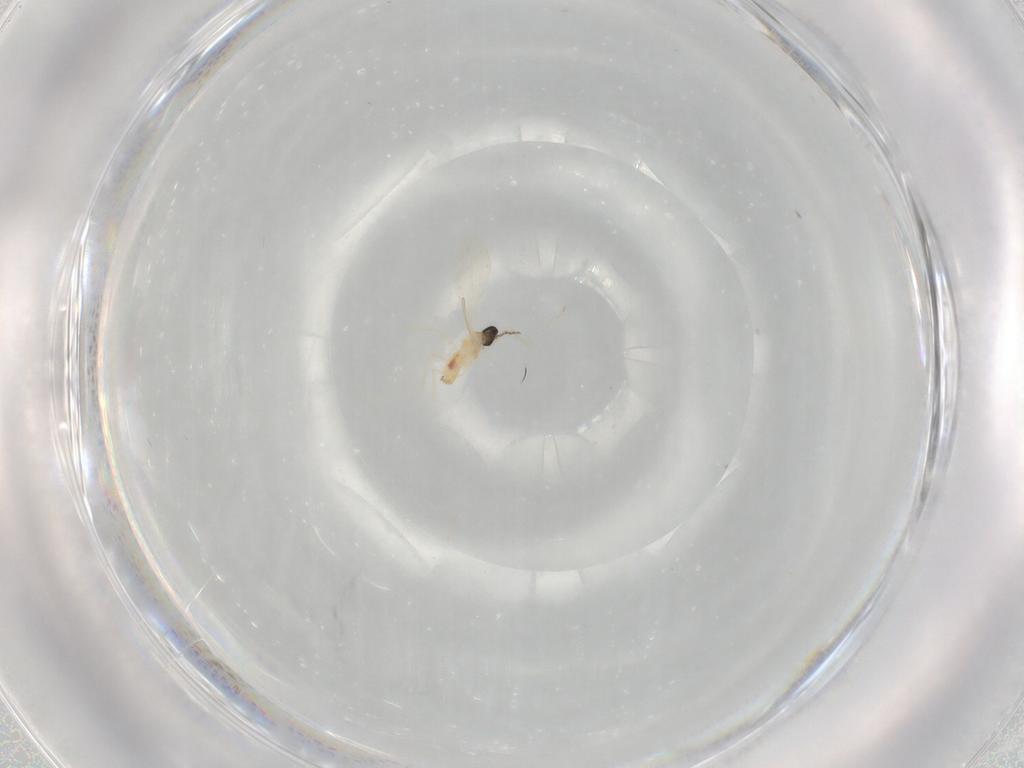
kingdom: Animalia
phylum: Arthropoda
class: Insecta
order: Diptera
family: Cecidomyiidae
